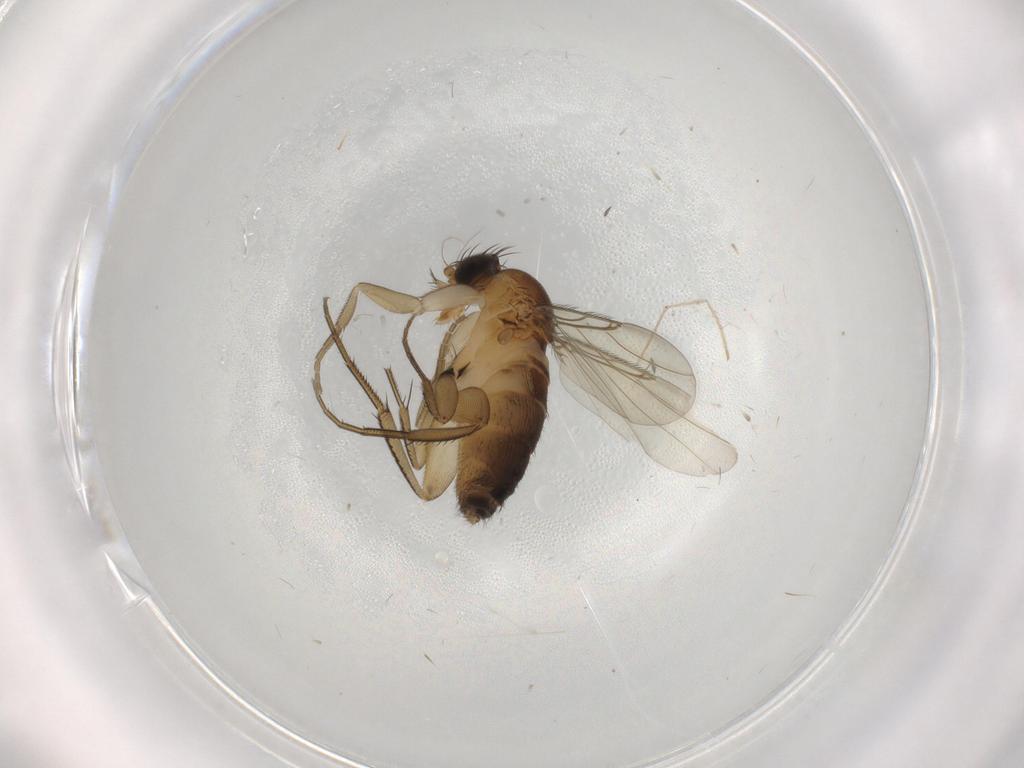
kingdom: Animalia
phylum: Arthropoda
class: Insecta
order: Diptera
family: Phoridae
